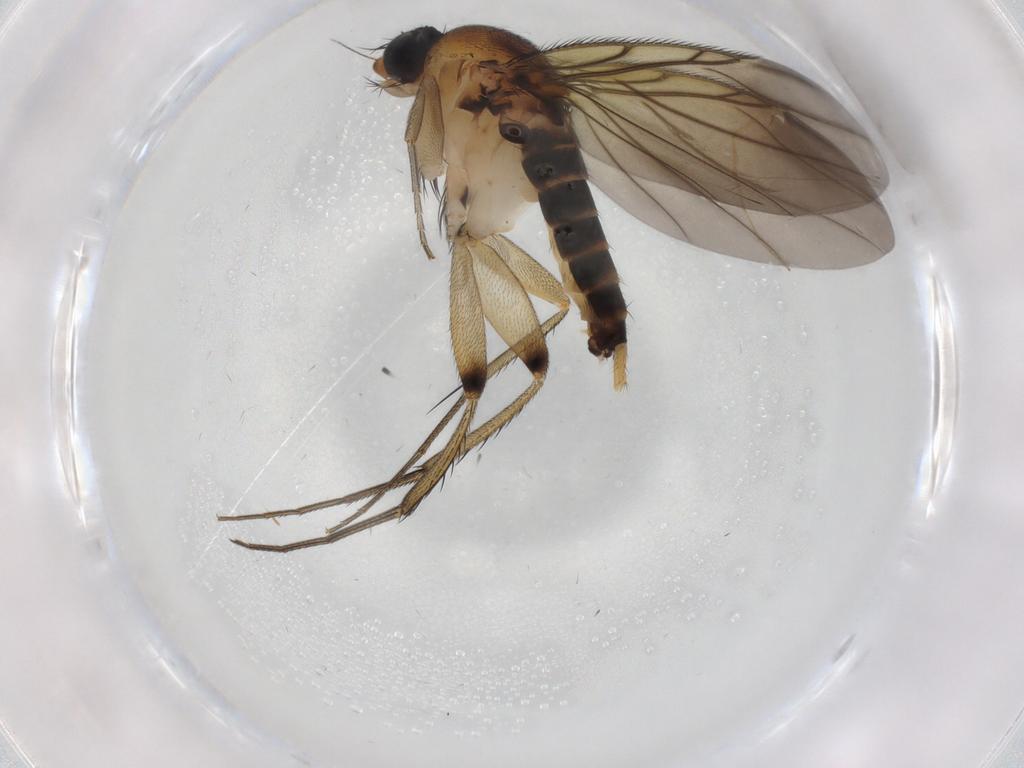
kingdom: Animalia
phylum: Arthropoda
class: Insecta
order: Diptera
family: Phoridae
